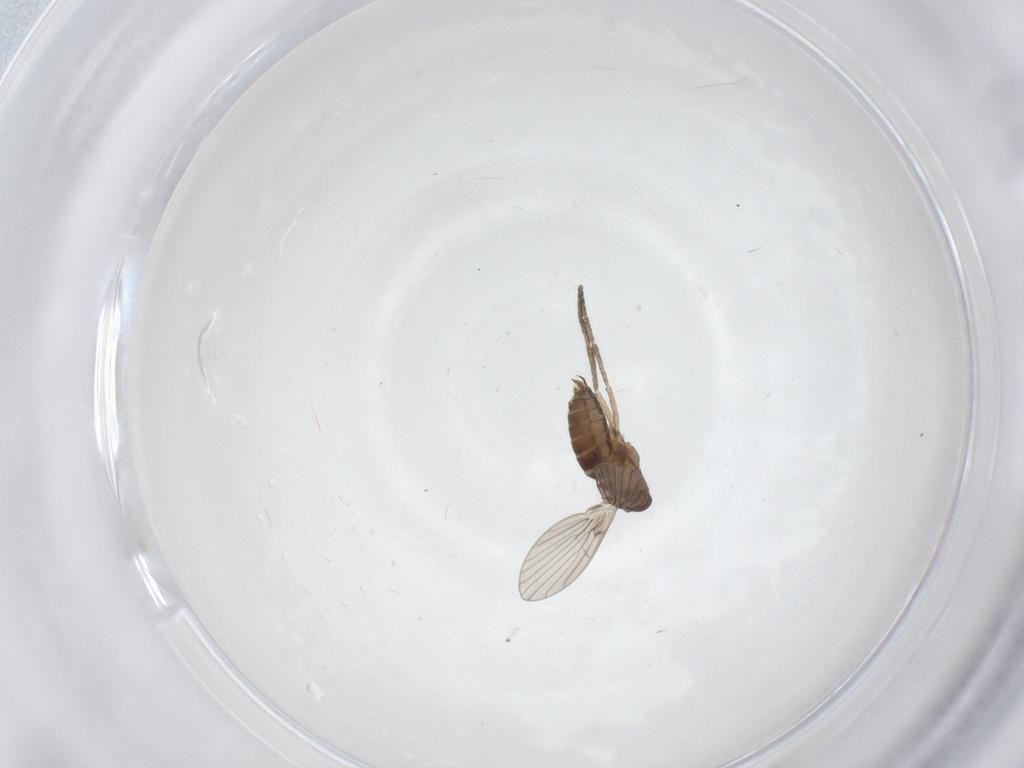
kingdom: Animalia
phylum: Arthropoda
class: Insecta
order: Diptera
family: Psychodidae
